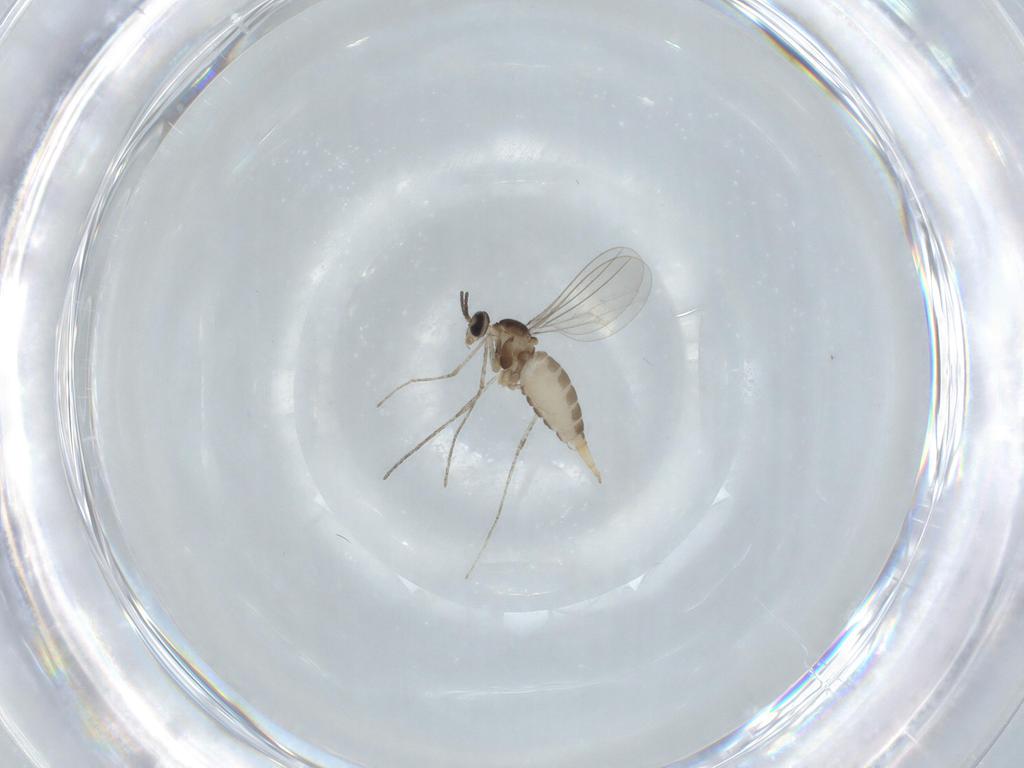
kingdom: Animalia
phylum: Arthropoda
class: Insecta
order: Diptera
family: Cecidomyiidae
